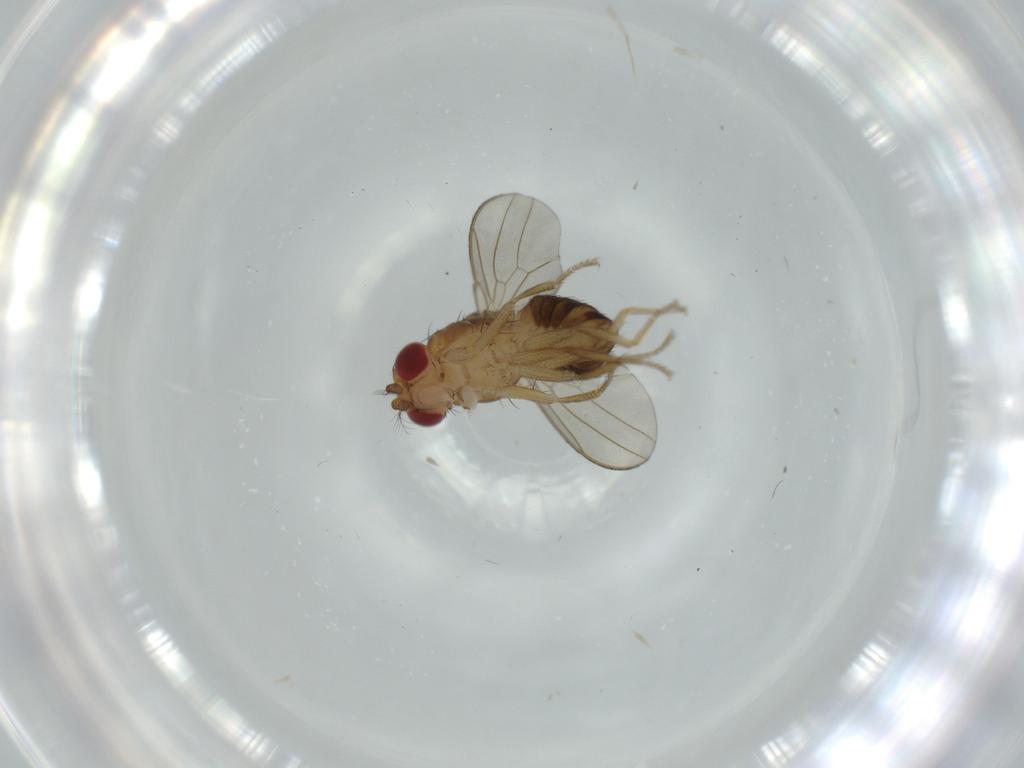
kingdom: Animalia
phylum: Arthropoda
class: Insecta
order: Diptera
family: Drosophilidae
